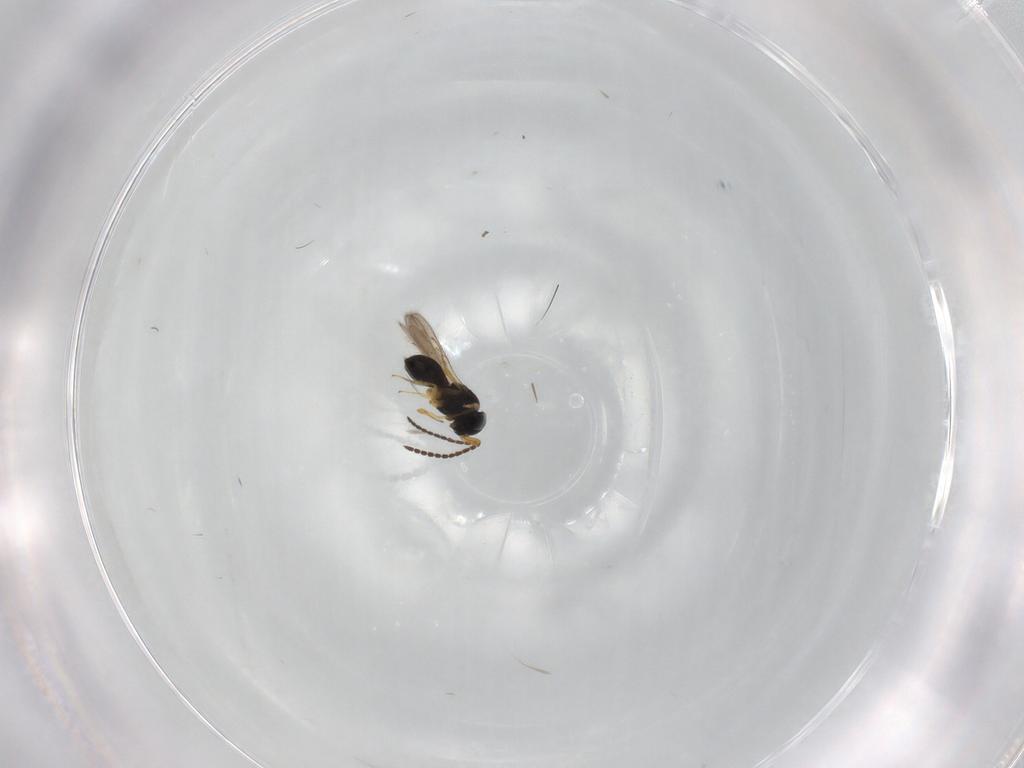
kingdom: Animalia
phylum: Arthropoda
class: Insecta
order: Hymenoptera
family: Scelionidae
